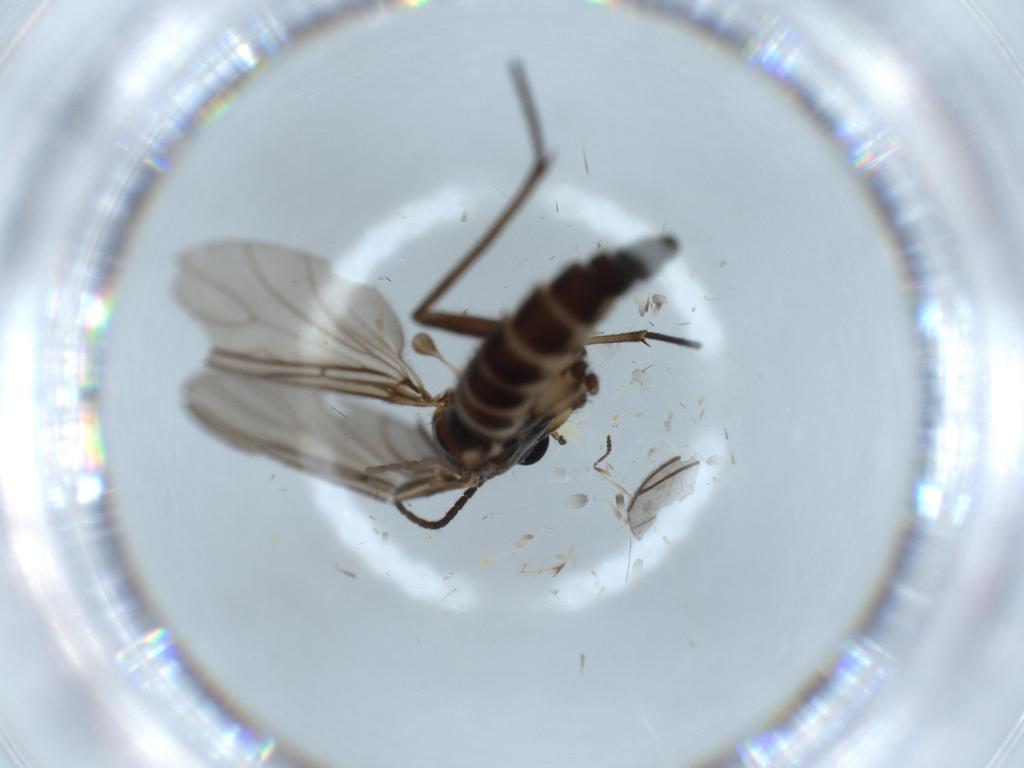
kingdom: Animalia
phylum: Arthropoda
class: Insecta
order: Diptera
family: Sciaridae
